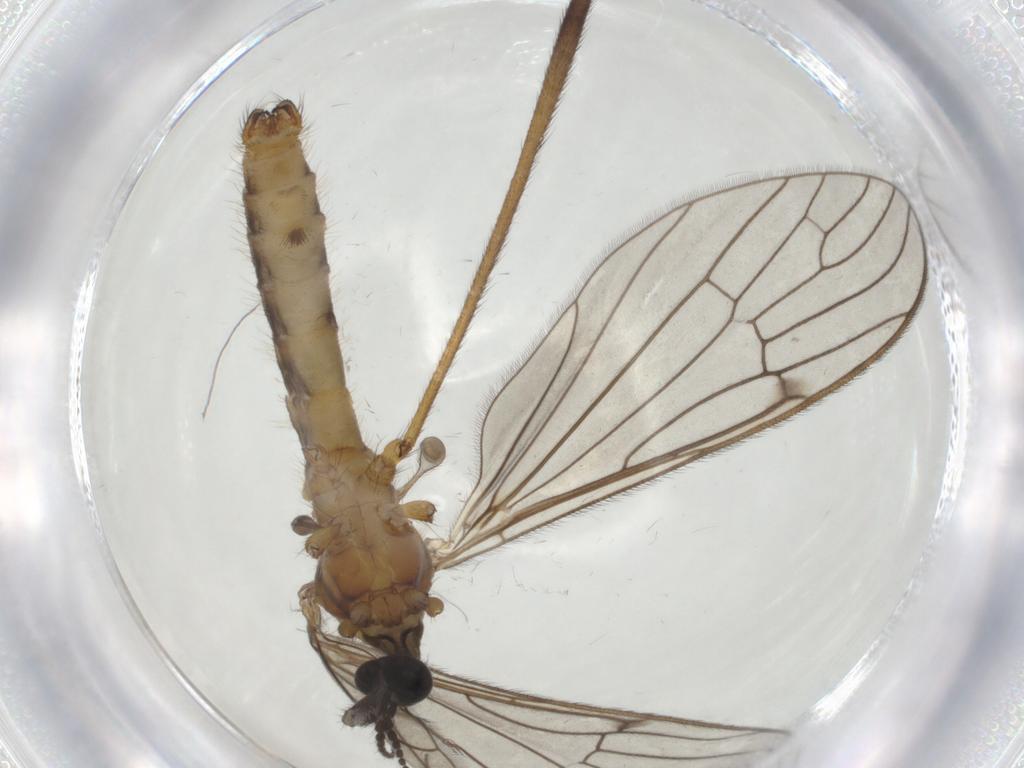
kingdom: Animalia
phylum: Arthropoda
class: Insecta
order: Diptera
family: Limoniidae
